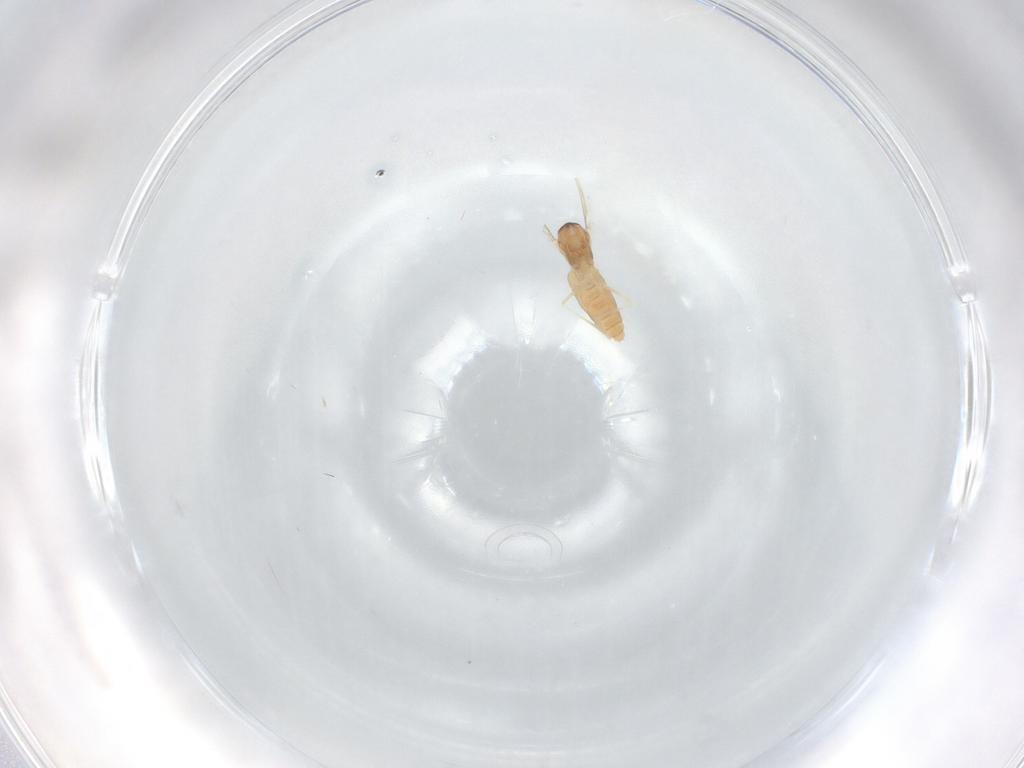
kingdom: Animalia
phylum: Arthropoda
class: Insecta
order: Diptera
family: Cecidomyiidae
